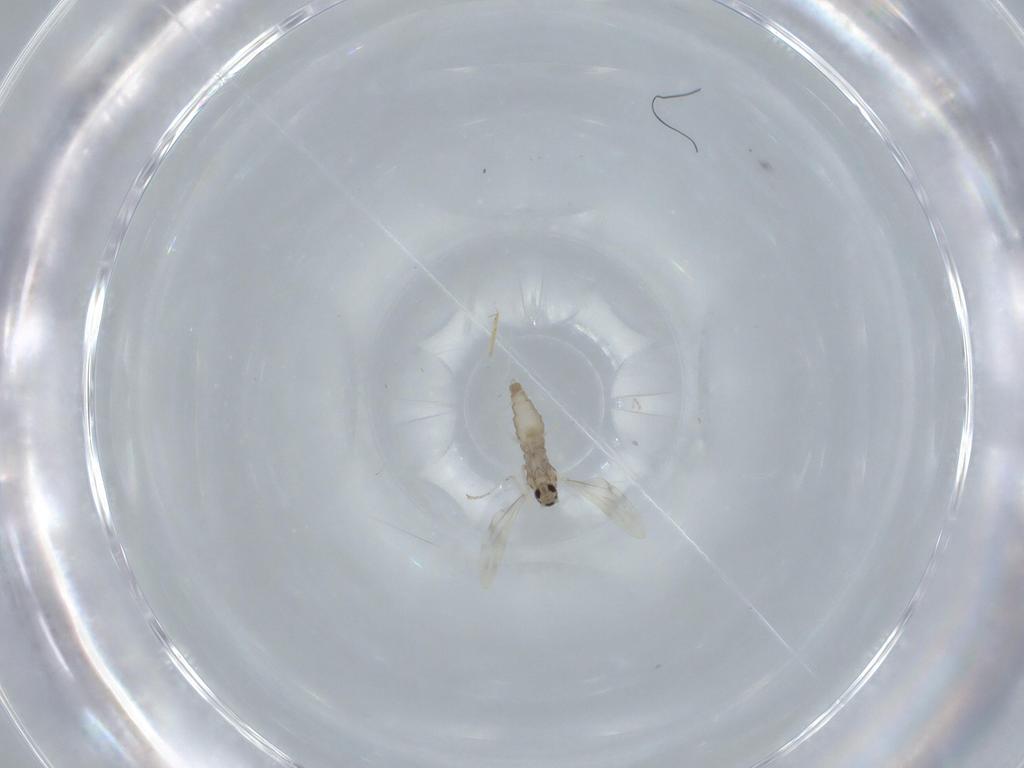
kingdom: Animalia
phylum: Arthropoda
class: Insecta
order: Diptera
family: Cecidomyiidae
